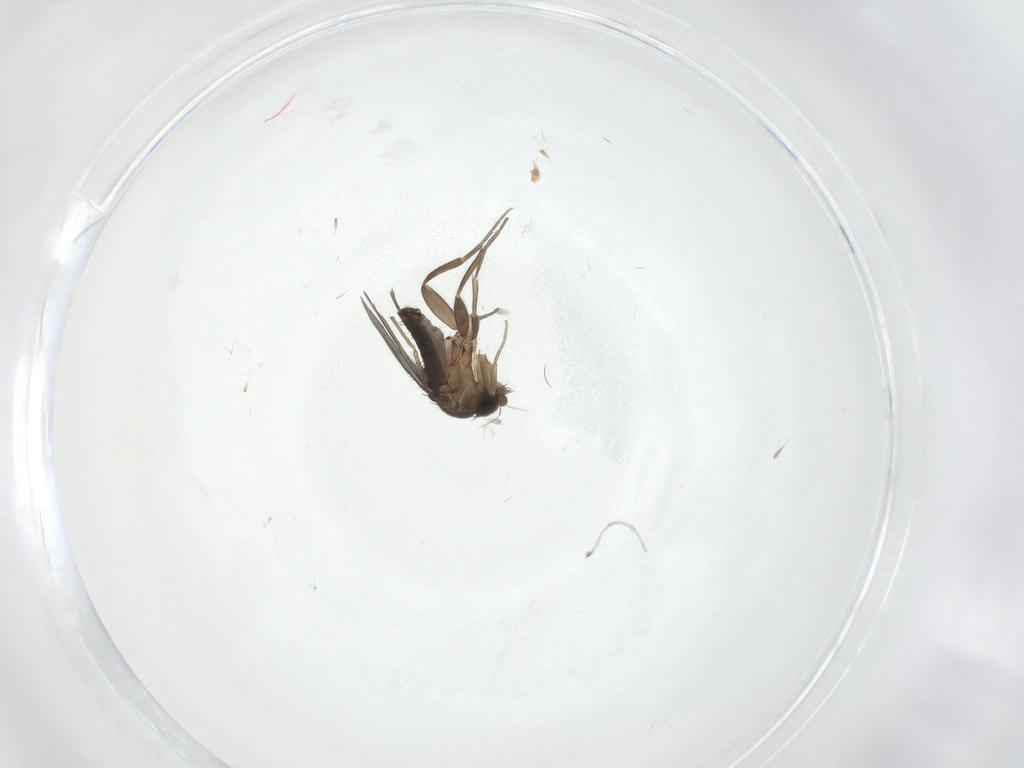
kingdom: Animalia
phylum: Arthropoda
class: Insecta
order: Diptera
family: Phoridae
